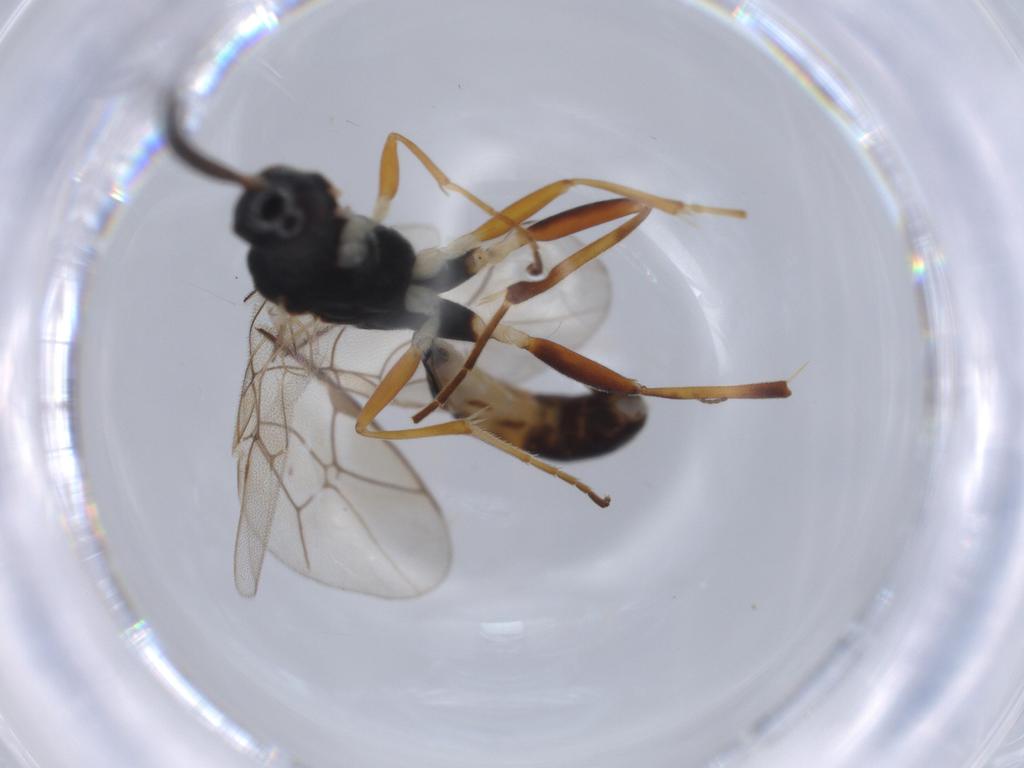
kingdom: Animalia
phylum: Arthropoda
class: Insecta
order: Hymenoptera
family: Ichneumonidae
